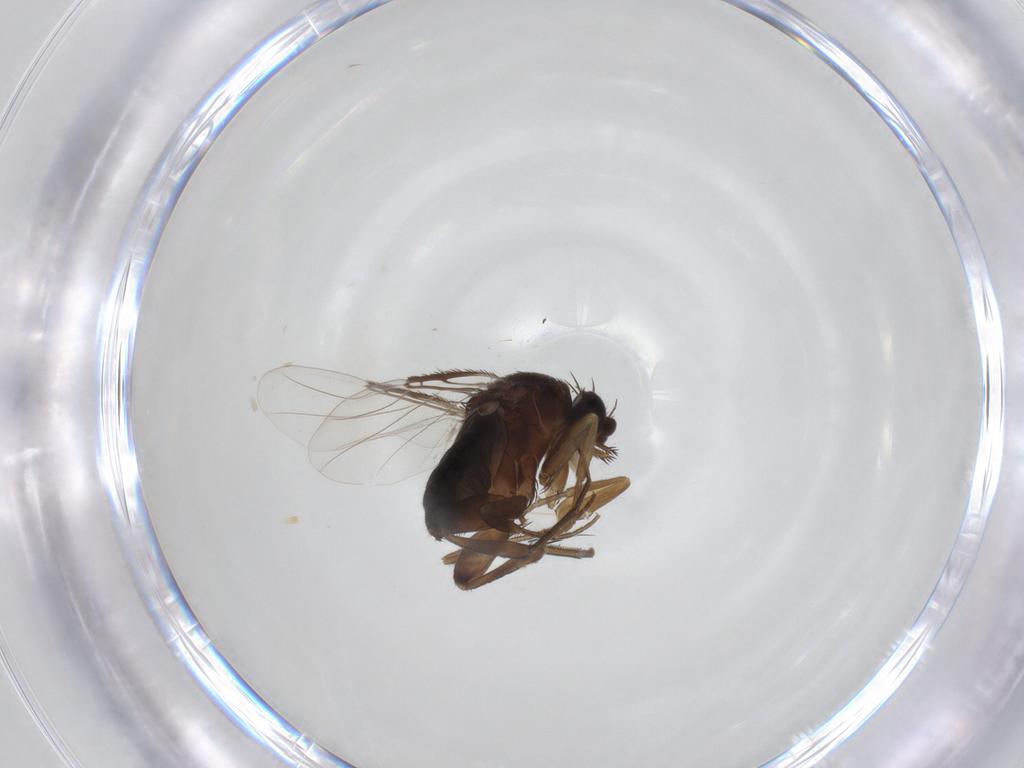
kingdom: Animalia
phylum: Arthropoda
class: Insecta
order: Diptera
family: Phoridae
